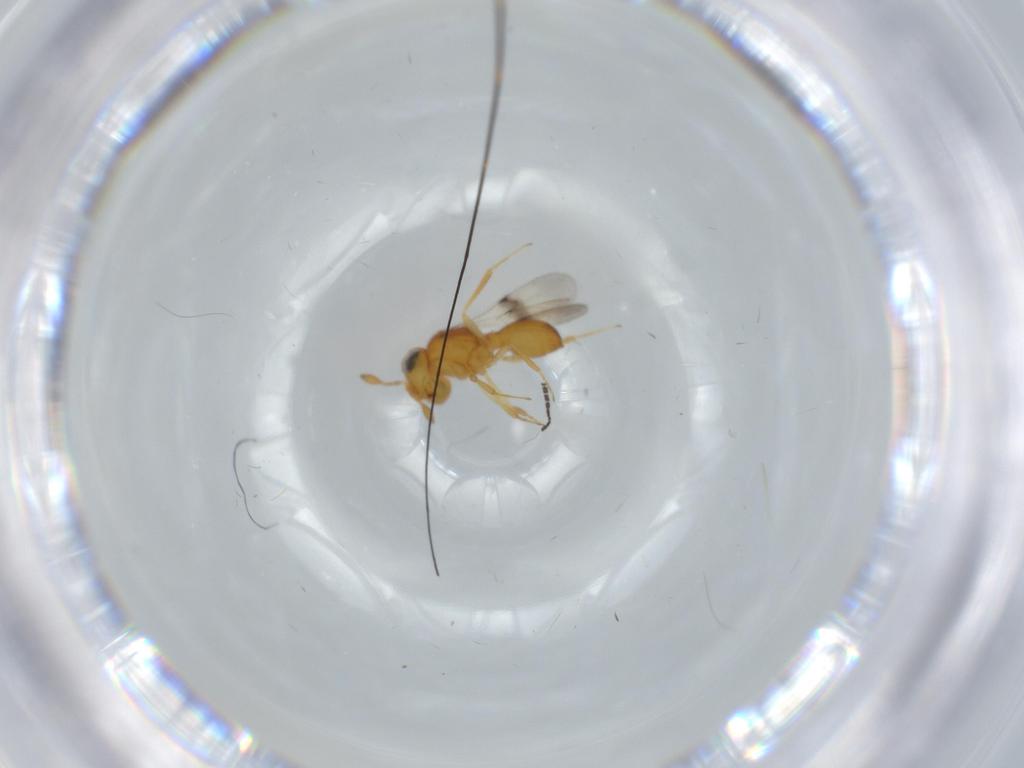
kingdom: Animalia
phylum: Arthropoda
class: Insecta
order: Hymenoptera
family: Scelionidae
